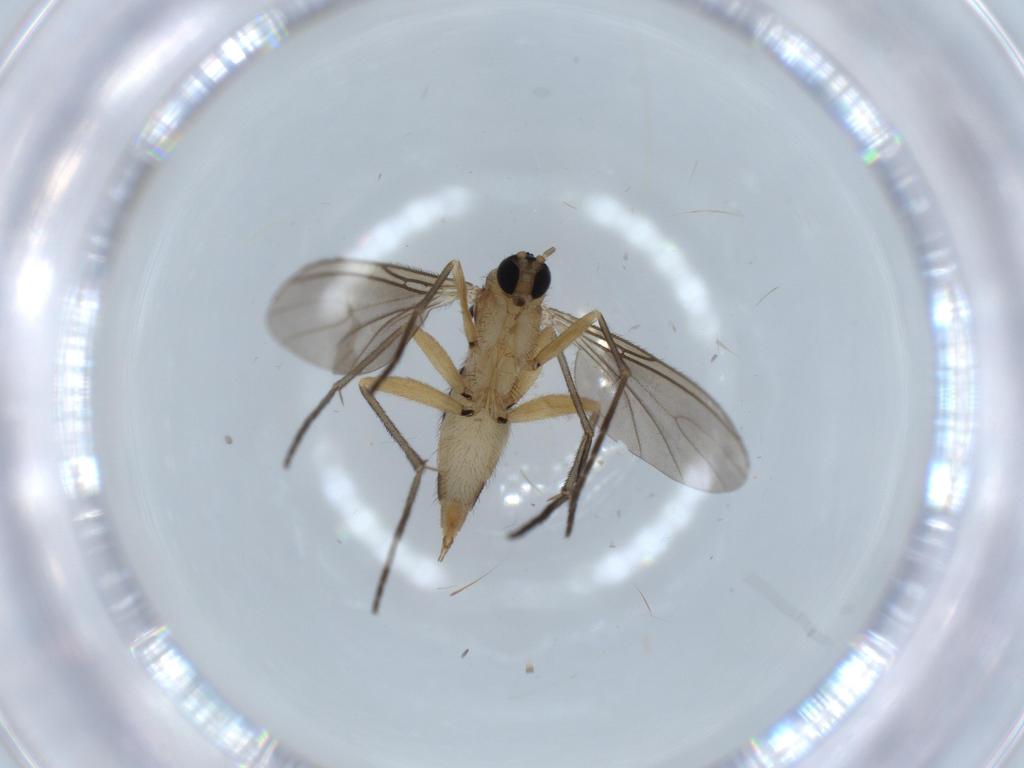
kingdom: Animalia
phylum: Arthropoda
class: Insecta
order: Diptera
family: Sciaridae
